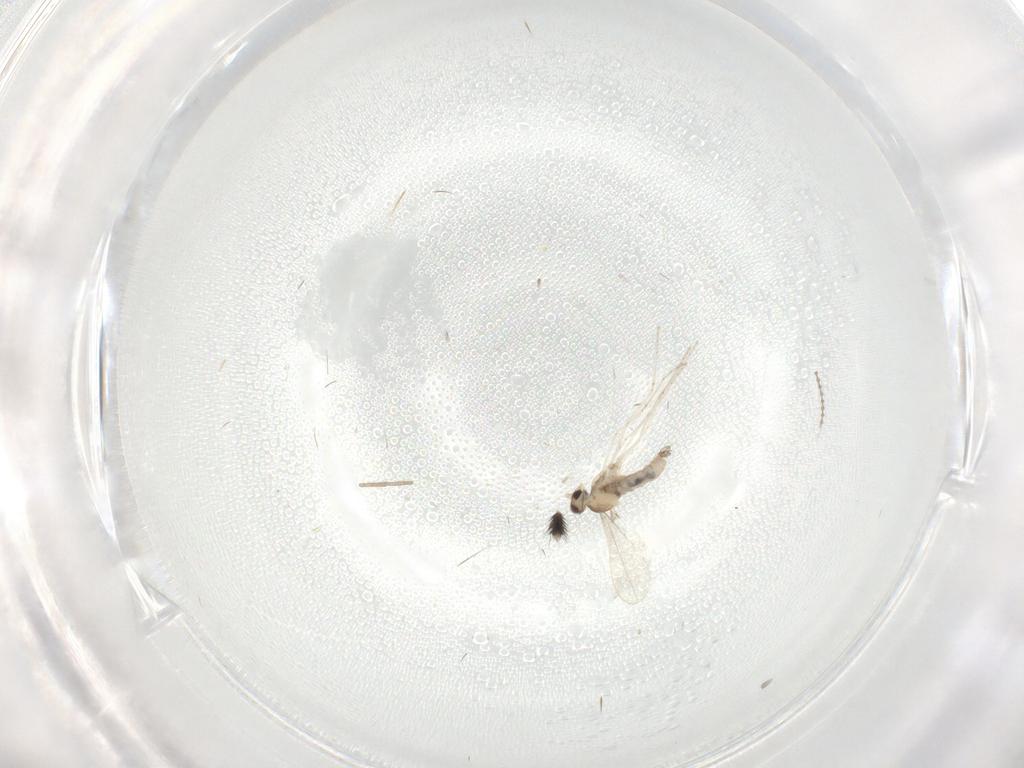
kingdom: Animalia
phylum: Arthropoda
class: Insecta
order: Diptera
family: Cecidomyiidae
